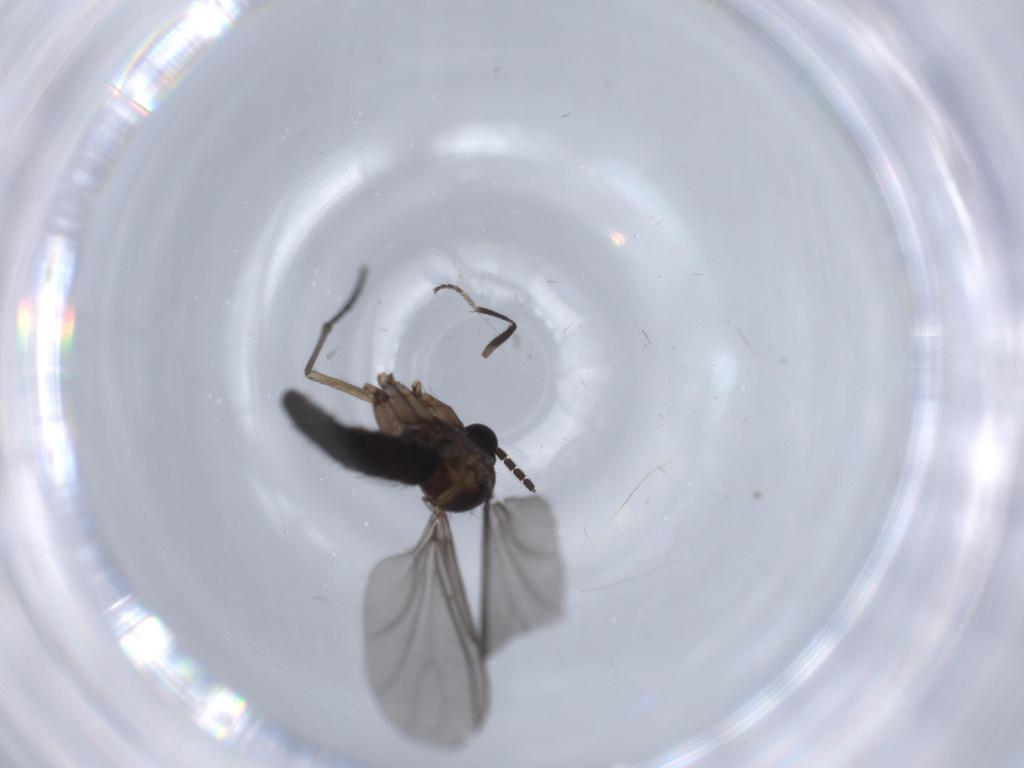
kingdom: Animalia
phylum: Arthropoda
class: Insecta
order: Diptera
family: Sciaridae
